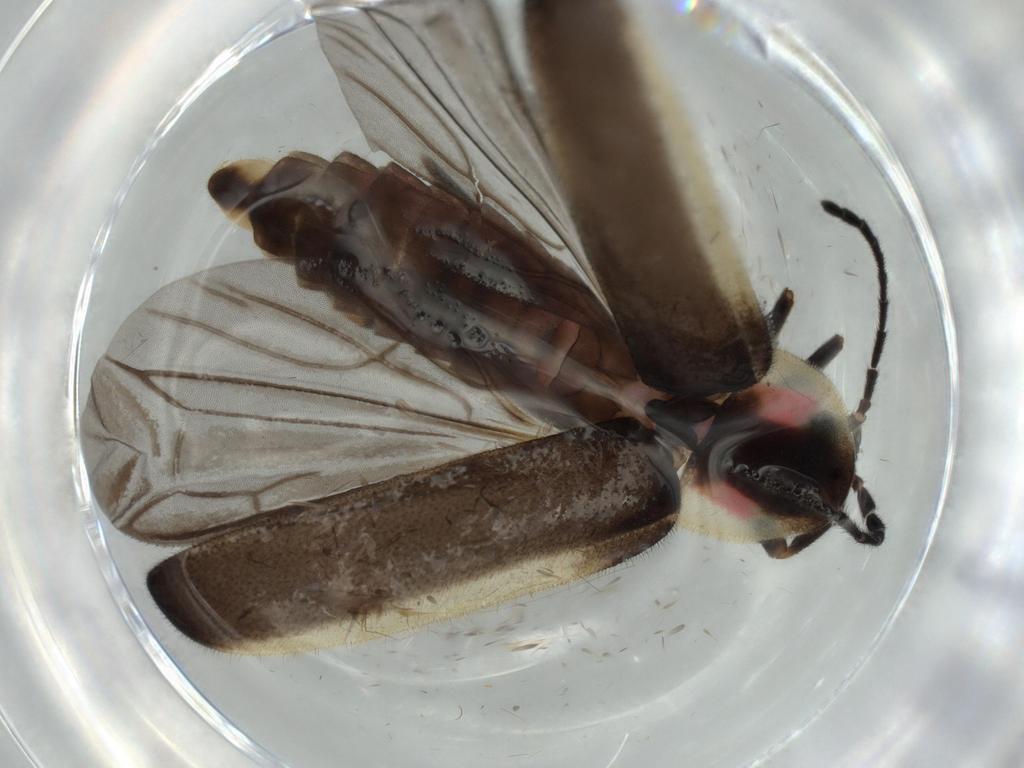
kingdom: Animalia
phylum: Arthropoda
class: Insecta
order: Coleoptera
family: Lampyridae
